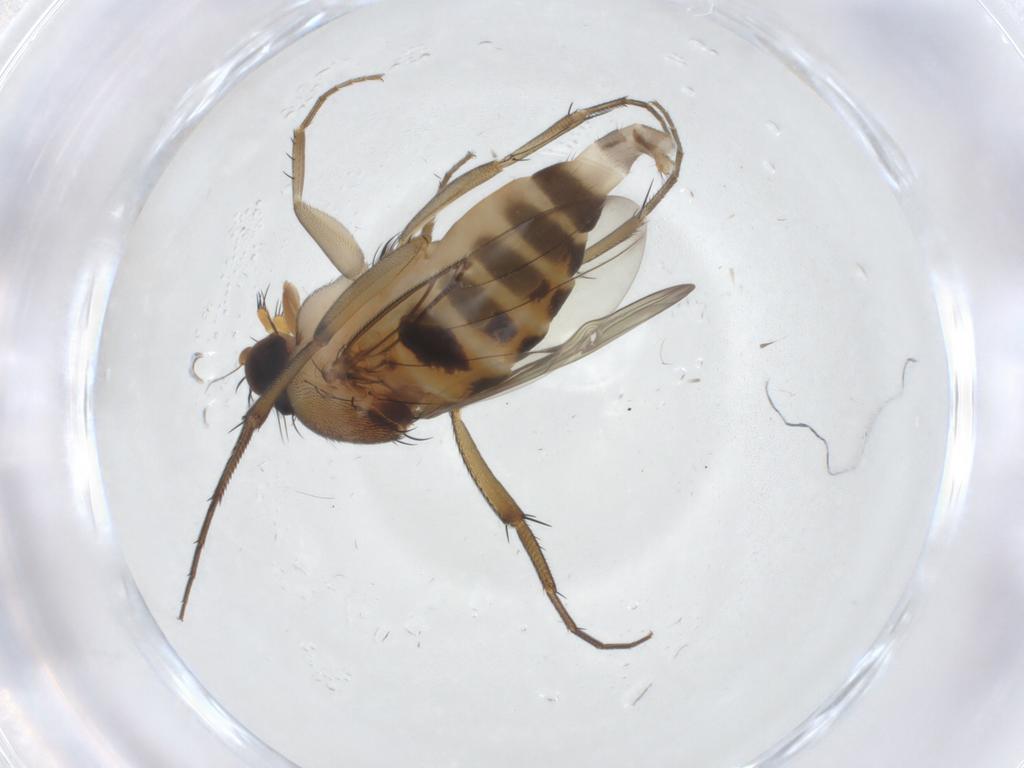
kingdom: Animalia
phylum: Arthropoda
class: Insecta
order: Diptera
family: Phoridae
